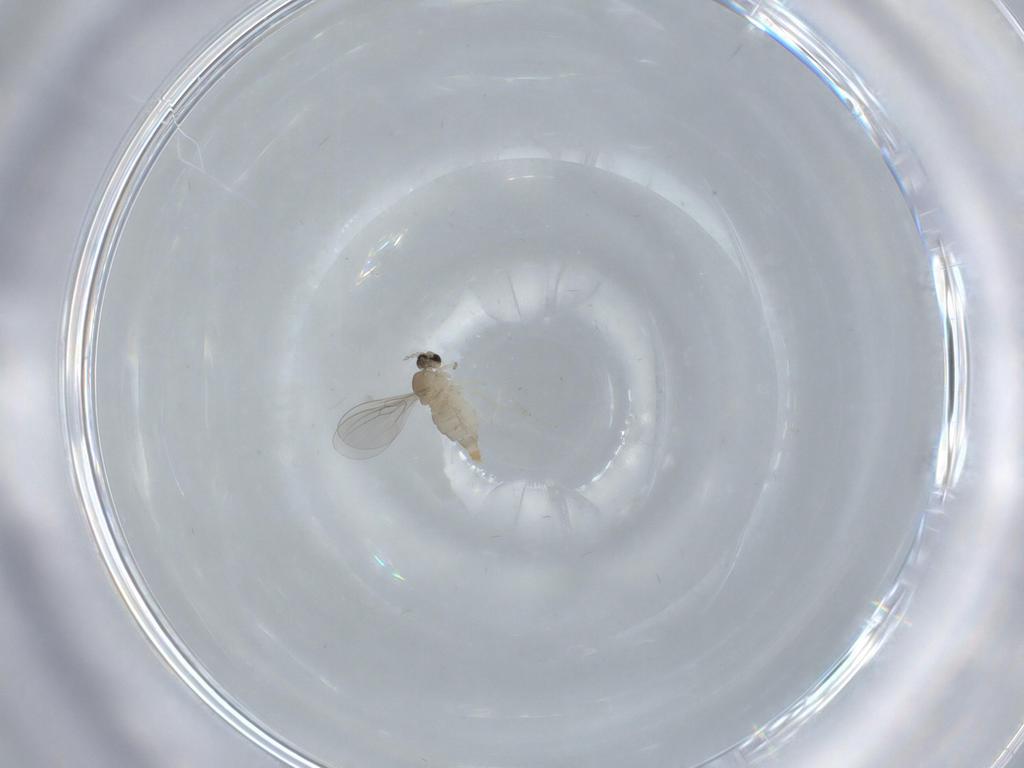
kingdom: Animalia
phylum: Arthropoda
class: Insecta
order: Diptera
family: Cecidomyiidae
